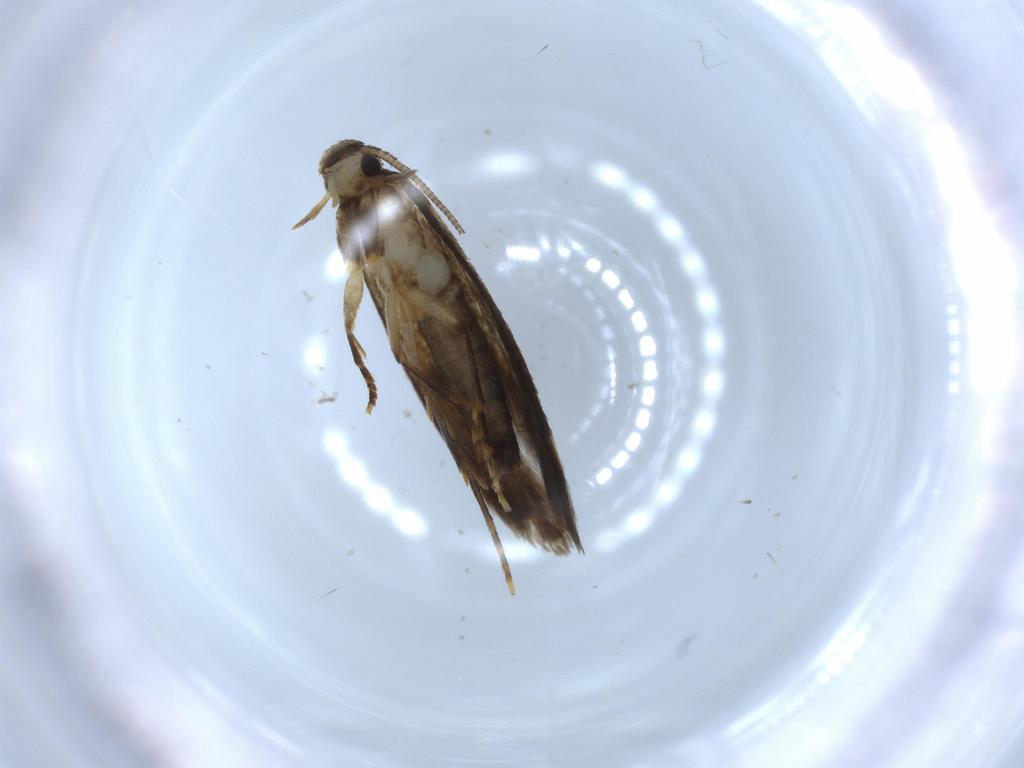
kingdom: Animalia
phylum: Arthropoda
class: Insecta
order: Lepidoptera
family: Tineidae
